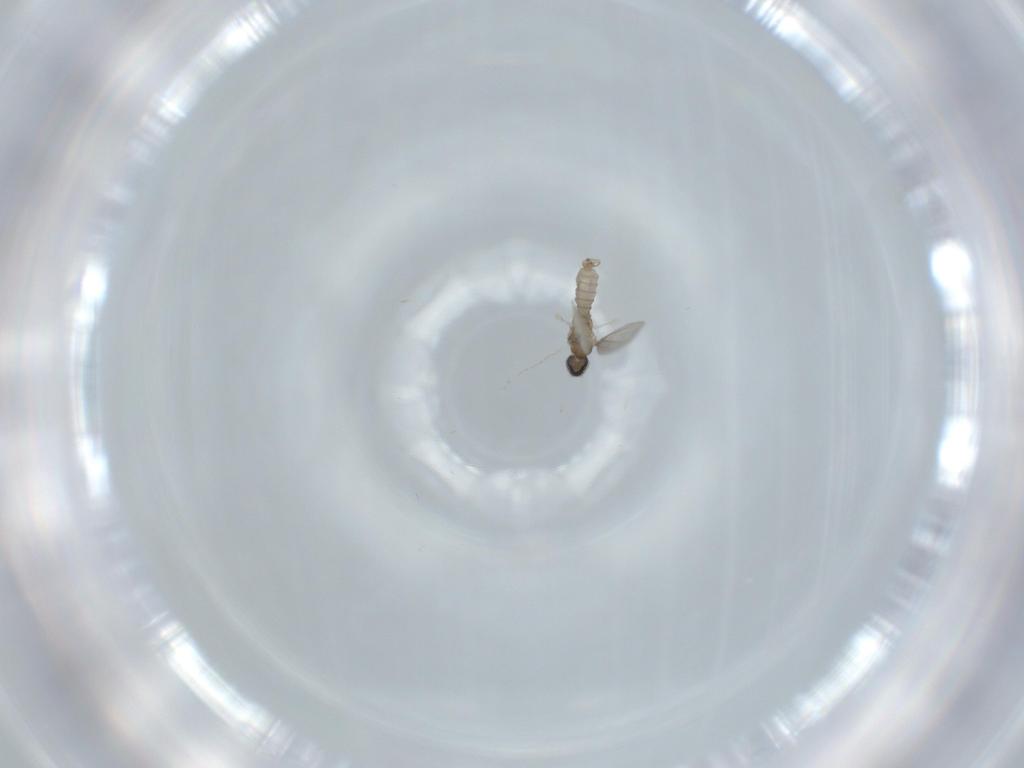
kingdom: Animalia
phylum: Arthropoda
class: Insecta
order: Diptera
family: Cecidomyiidae
